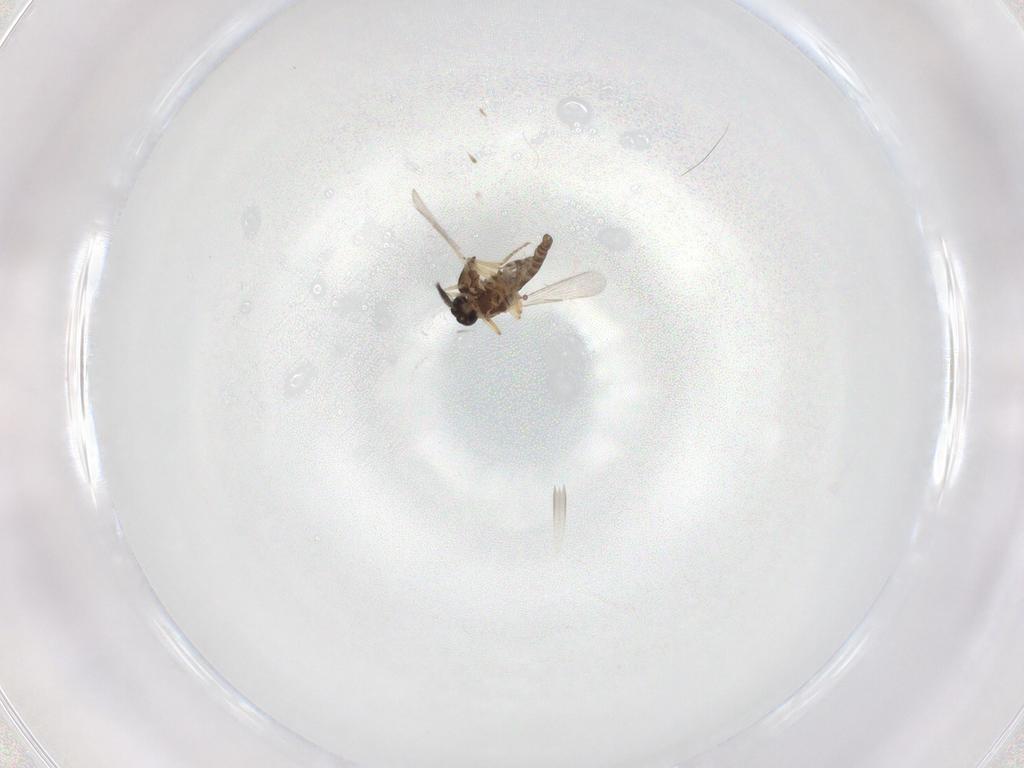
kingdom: Animalia
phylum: Arthropoda
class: Insecta
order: Diptera
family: Ceratopogonidae
